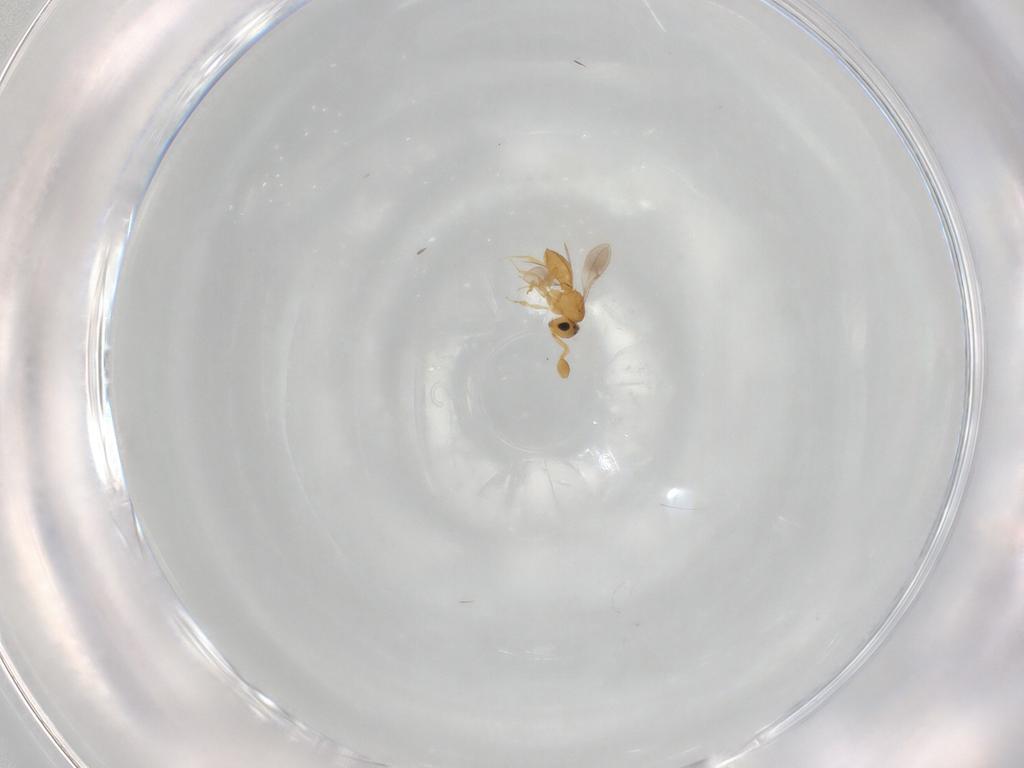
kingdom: Animalia
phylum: Arthropoda
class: Insecta
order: Hymenoptera
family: Scelionidae
